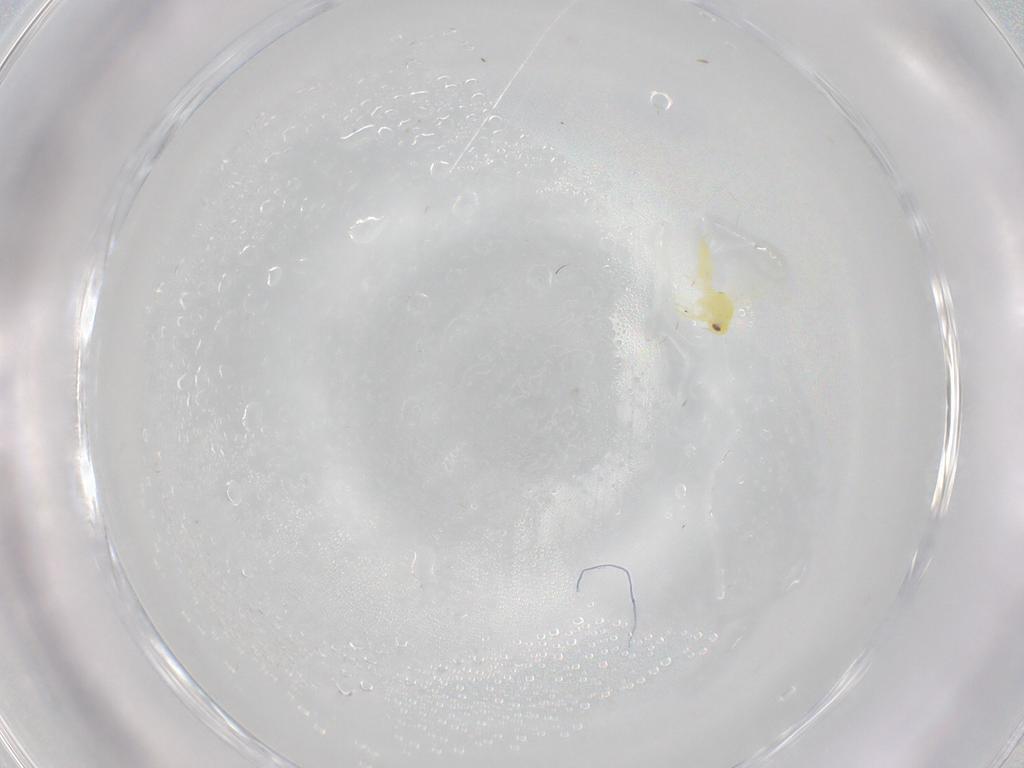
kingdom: Animalia
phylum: Arthropoda
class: Insecta
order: Hemiptera
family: Aleyrodidae
